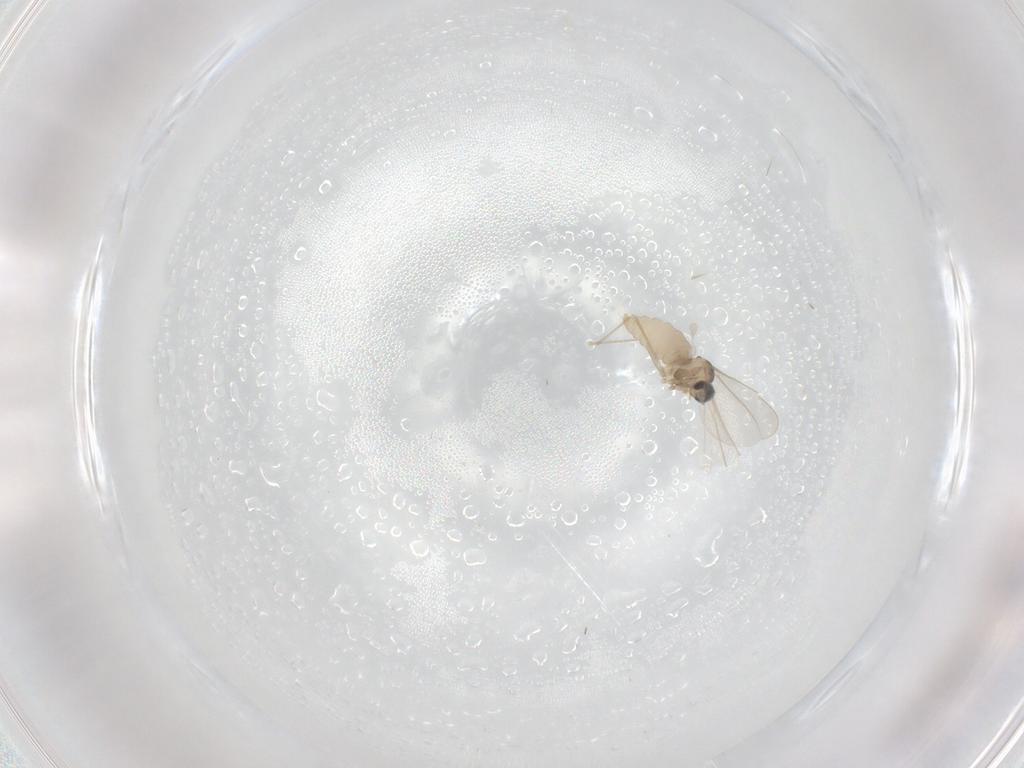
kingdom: Animalia
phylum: Arthropoda
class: Insecta
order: Diptera
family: Cecidomyiidae
